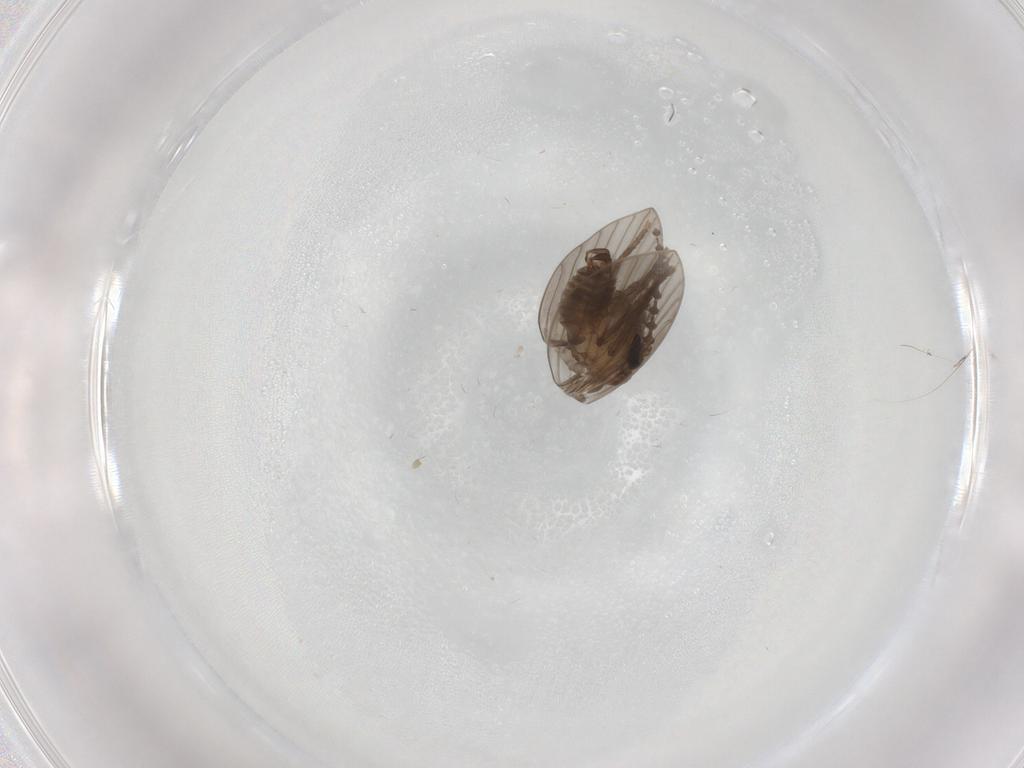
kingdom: Animalia
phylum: Arthropoda
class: Insecta
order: Diptera
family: Psychodidae
